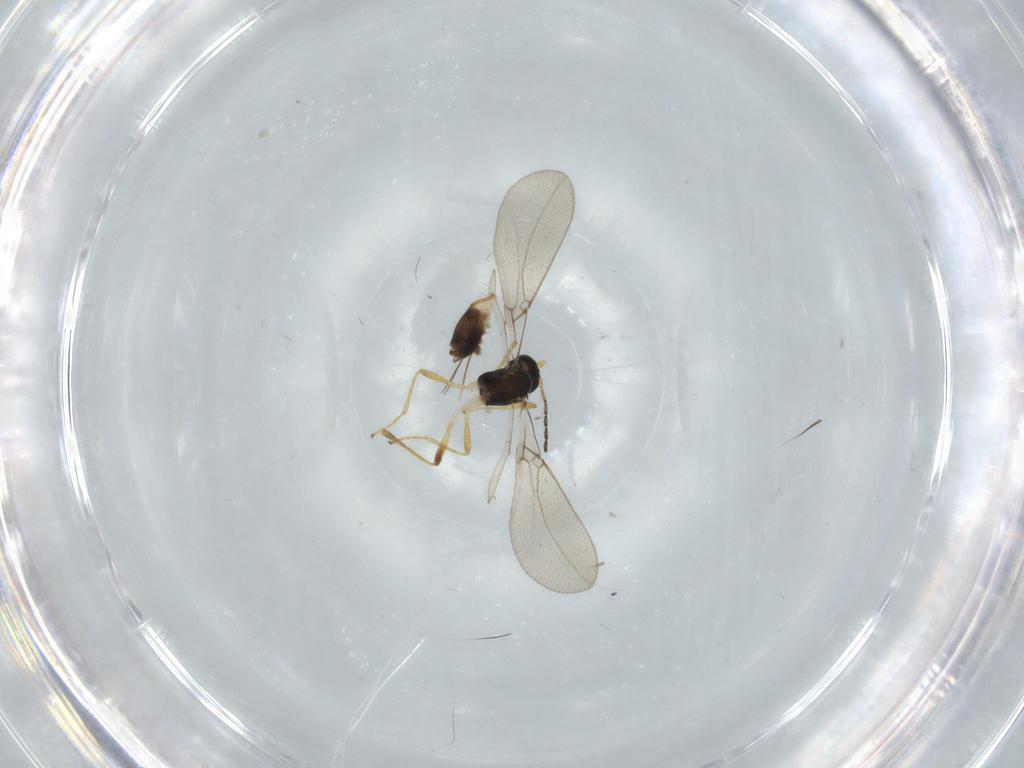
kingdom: Animalia
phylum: Arthropoda
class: Insecta
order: Hymenoptera
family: Braconidae
